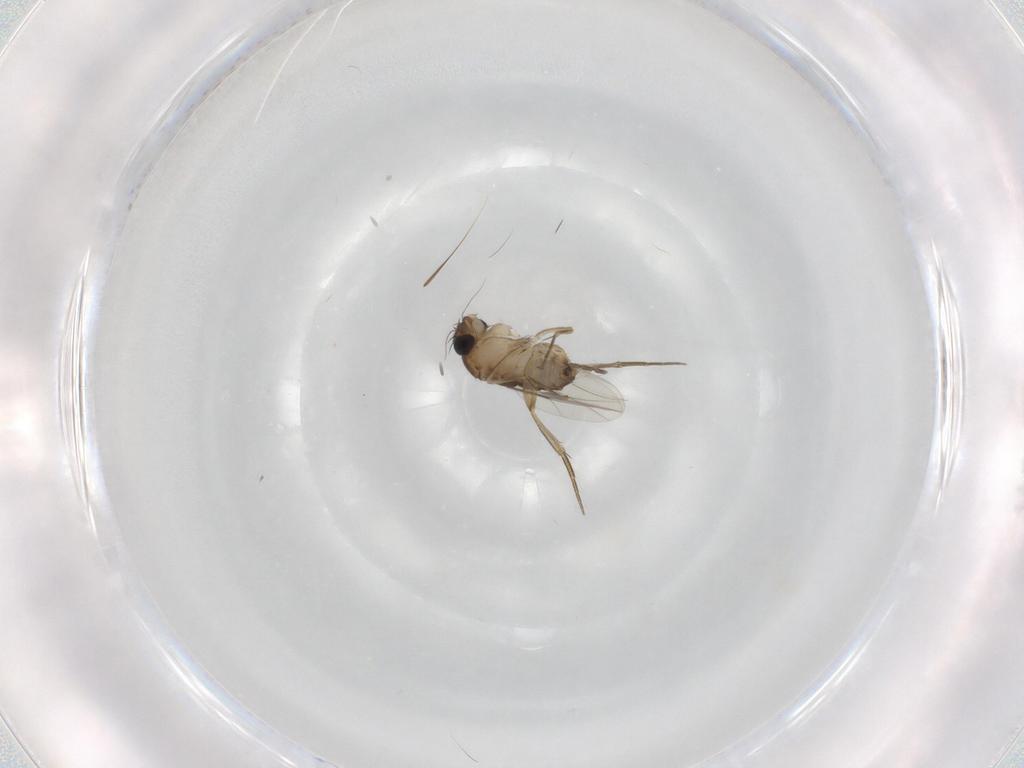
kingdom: Animalia
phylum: Arthropoda
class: Insecta
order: Diptera
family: Phoridae
